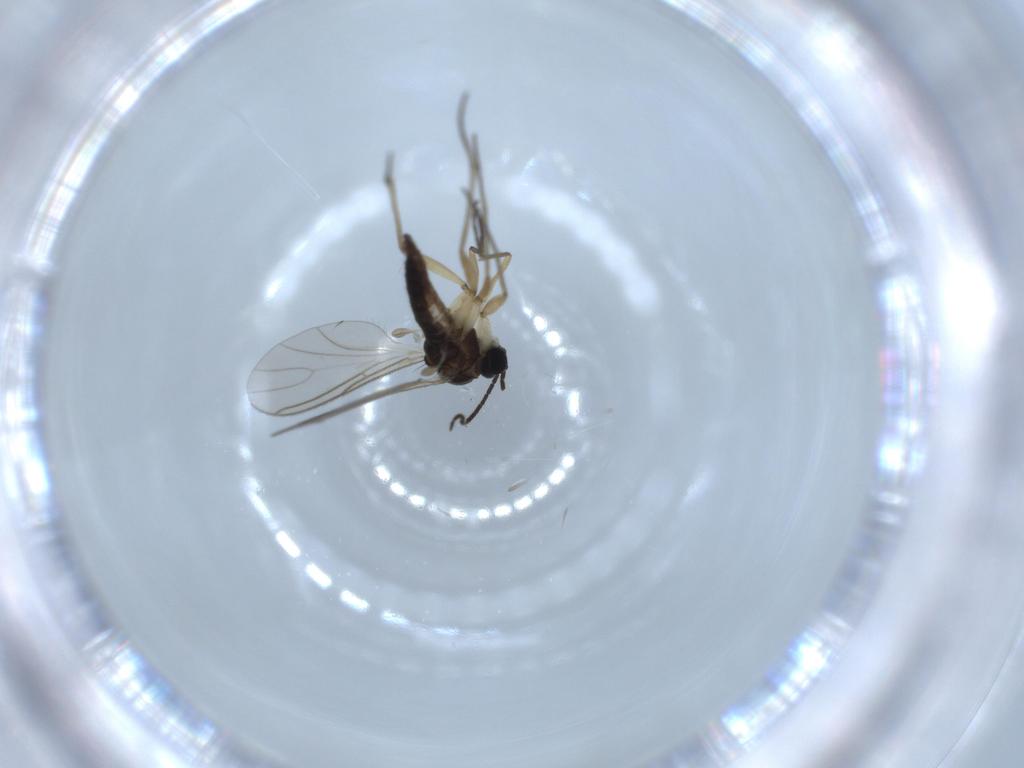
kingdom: Animalia
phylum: Arthropoda
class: Insecta
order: Diptera
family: Sciaridae
